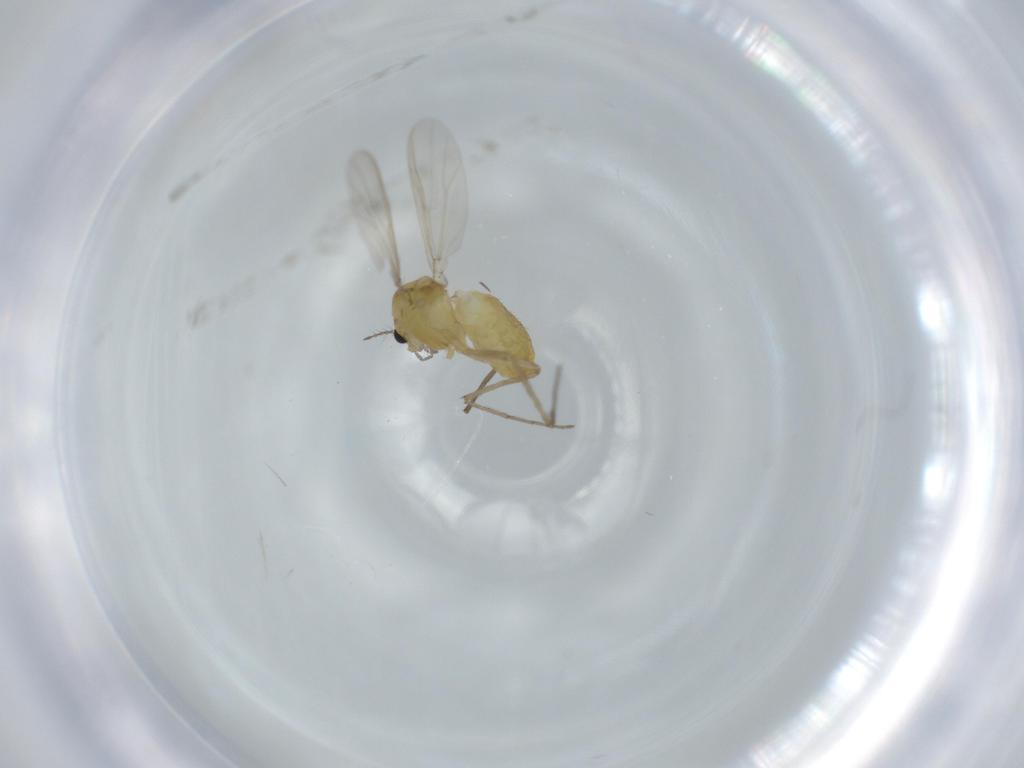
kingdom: Animalia
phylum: Arthropoda
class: Insecta
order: Diptera
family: Chironomidae
